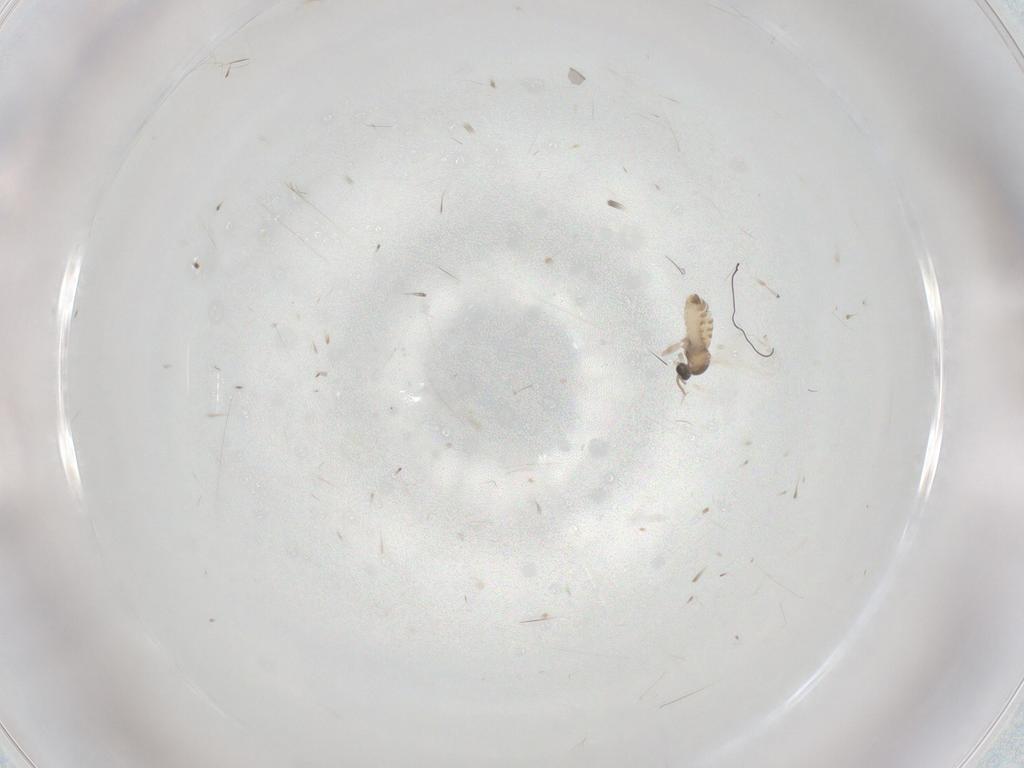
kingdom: Animalia
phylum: Arthropoda
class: Insecta
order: Diptera
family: Cecidomyiidae
